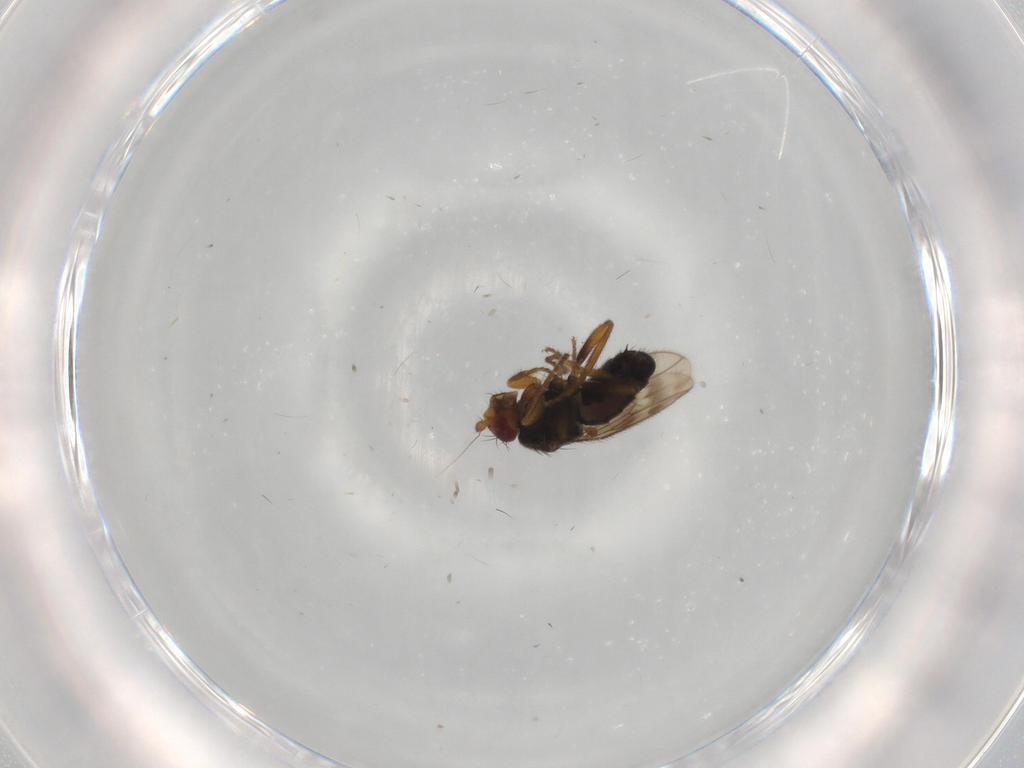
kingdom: Animalia
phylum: Arthropoda
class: Insecta
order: Diptera
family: Sphaeroceridae
